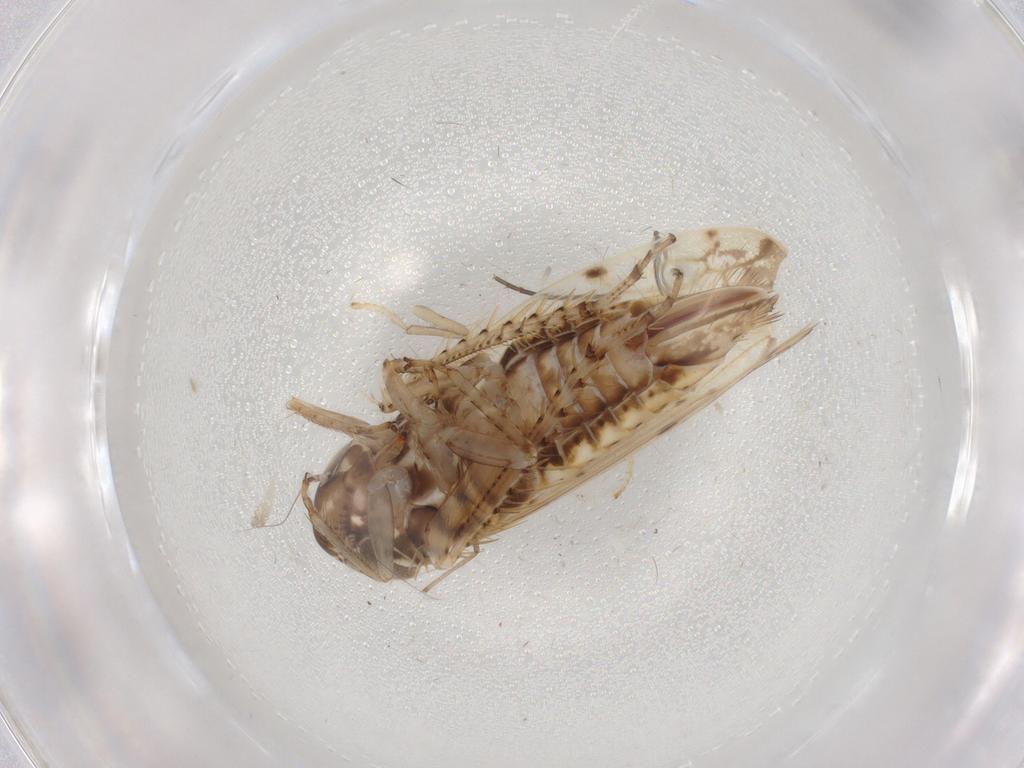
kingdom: Animalia
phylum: Arthropoda
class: Insecta
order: Hemiptera
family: Cicadellidae
